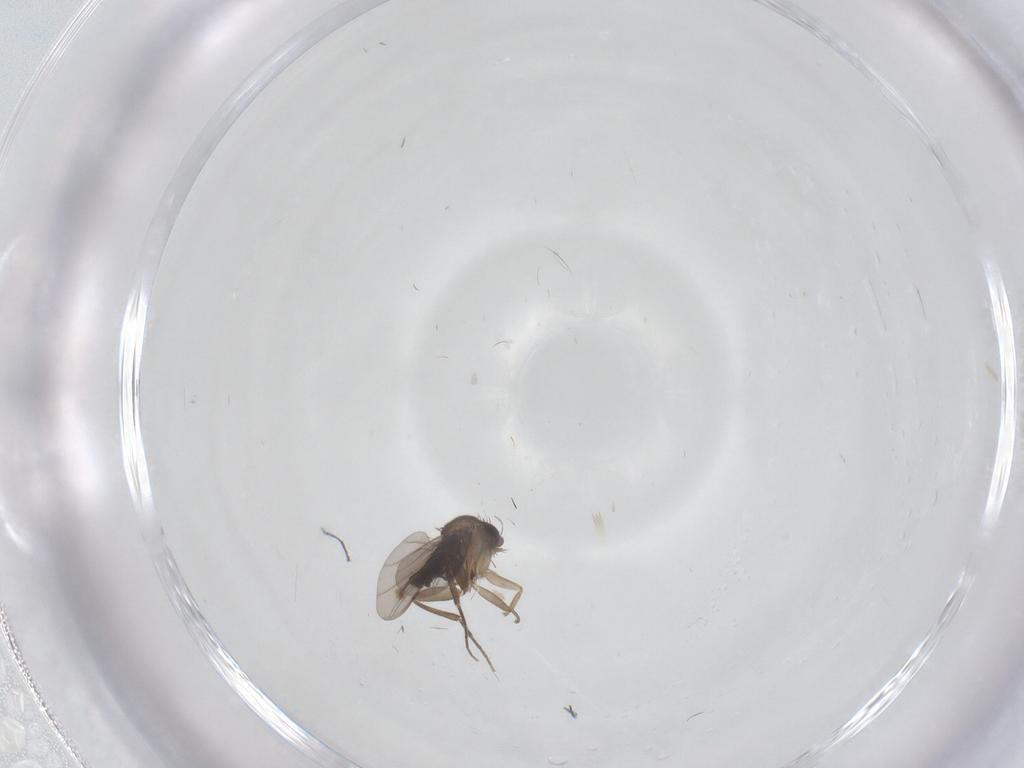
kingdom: Animalia
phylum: Arthropoda
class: Insecta
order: Diptera
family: Phoridae
